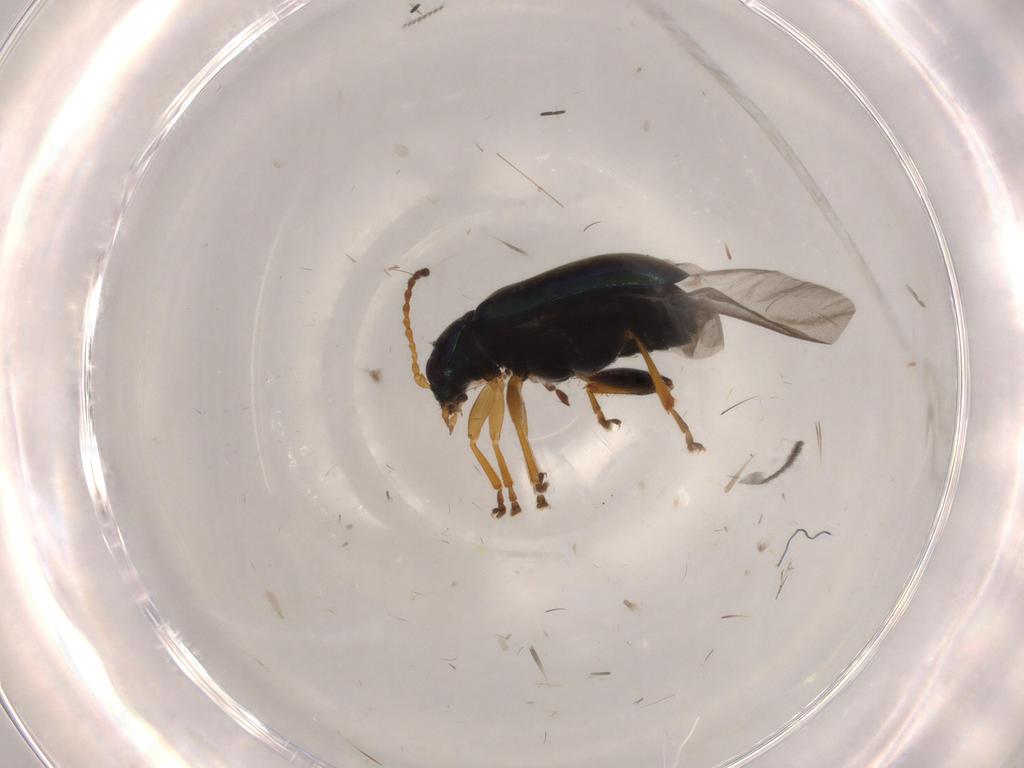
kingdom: Animalia
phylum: Arthropoda
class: Insecta
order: Coleoptera
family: Chrysomelidae
